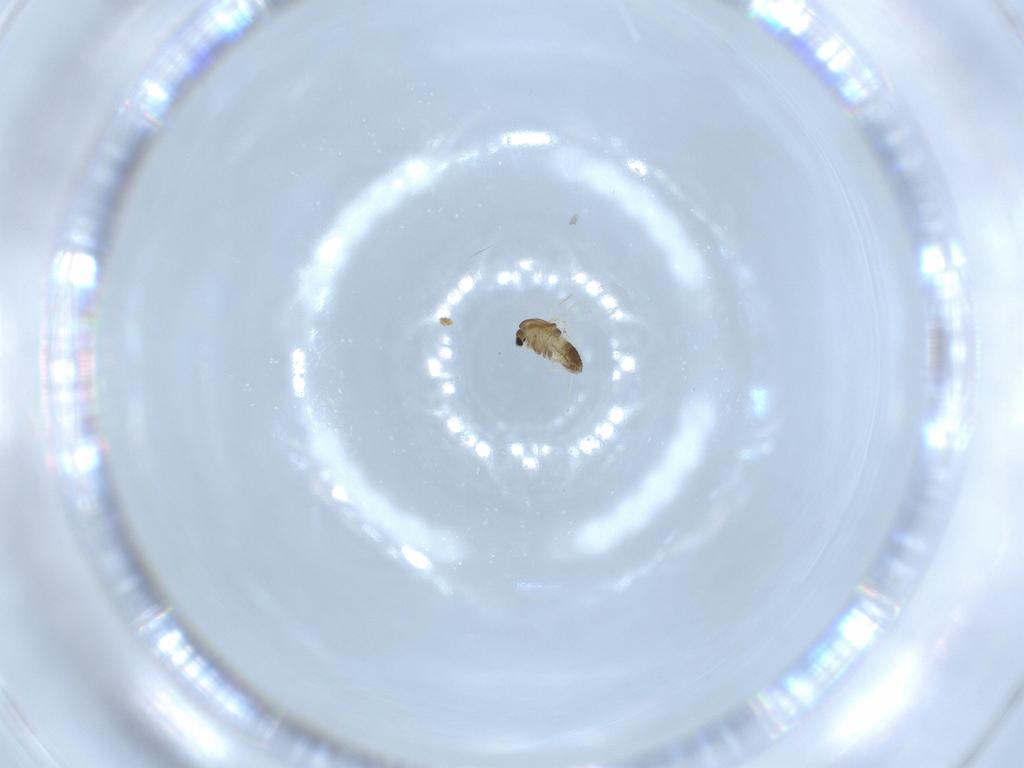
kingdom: Animalia
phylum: Arthropoda
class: Insecta
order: Diptera
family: Chironomidae
